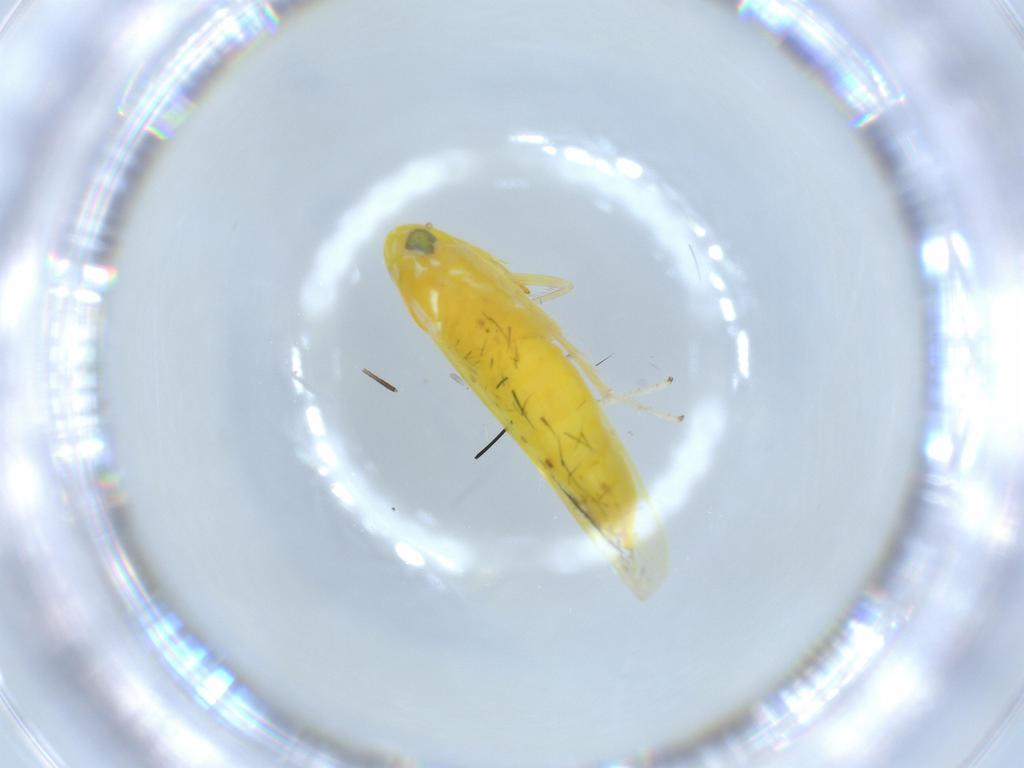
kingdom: Animalia
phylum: Arthropoda
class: Insecta
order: Hemiptera
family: Cicadellidae
